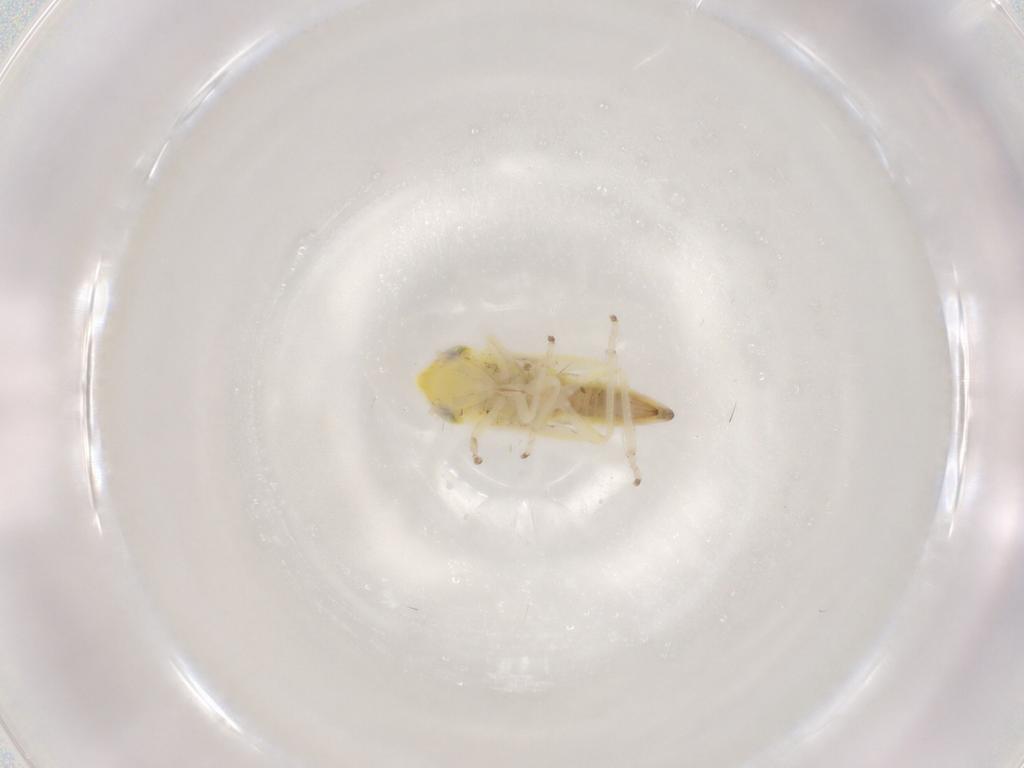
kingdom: Animalia
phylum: Arthropoda
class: Insecta
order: Hemiptera
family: Cicadellidae
